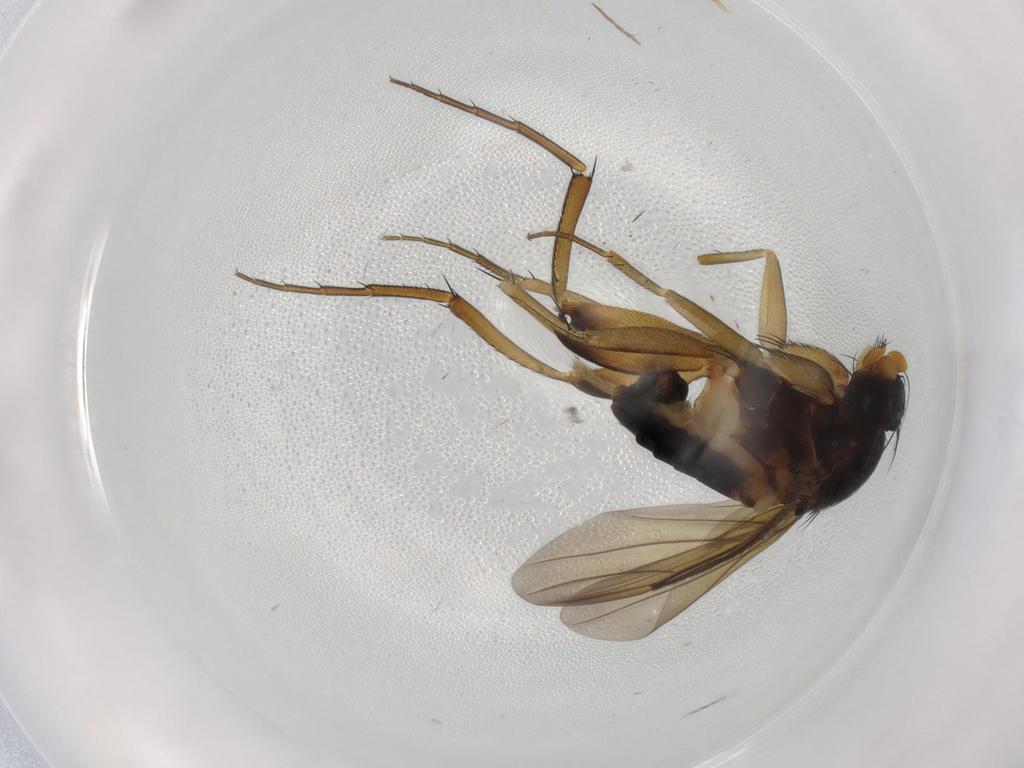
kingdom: Animalia
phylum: Arthropoda
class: Insecta
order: Diptera
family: Phoridae
